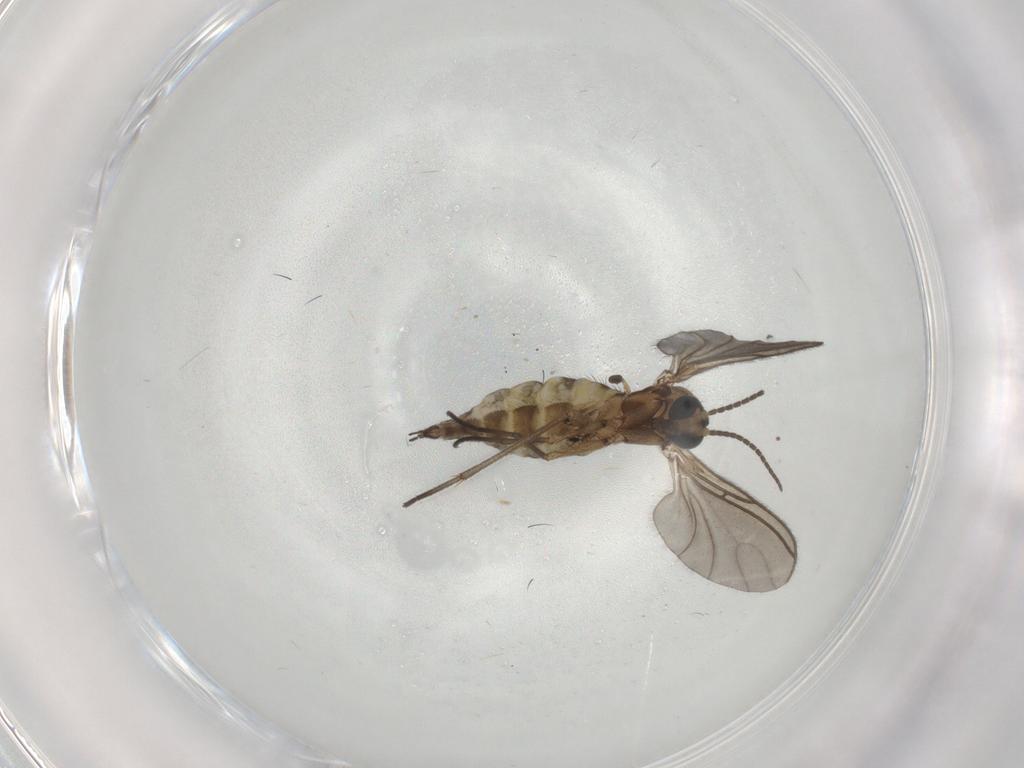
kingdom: Animalia
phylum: Arthropoda
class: Insecta
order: Diptera
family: Sciaridae
